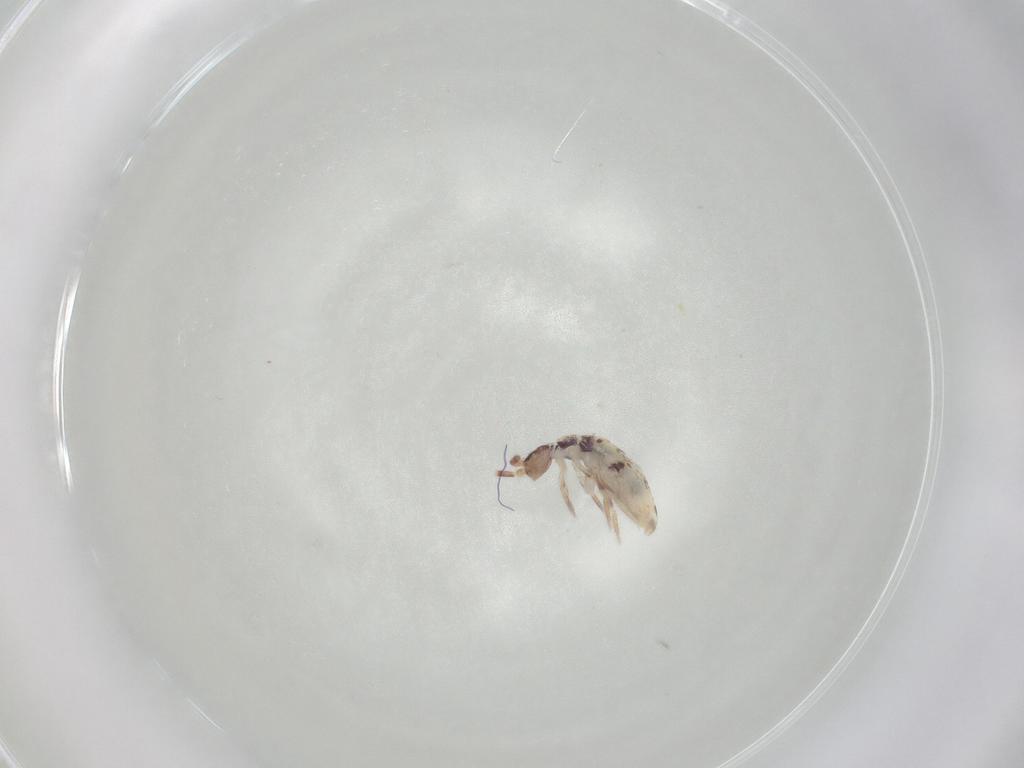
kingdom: Animalia
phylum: Arthropoda
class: Collembola
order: Entomobryomorpha
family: Entomobryidae
